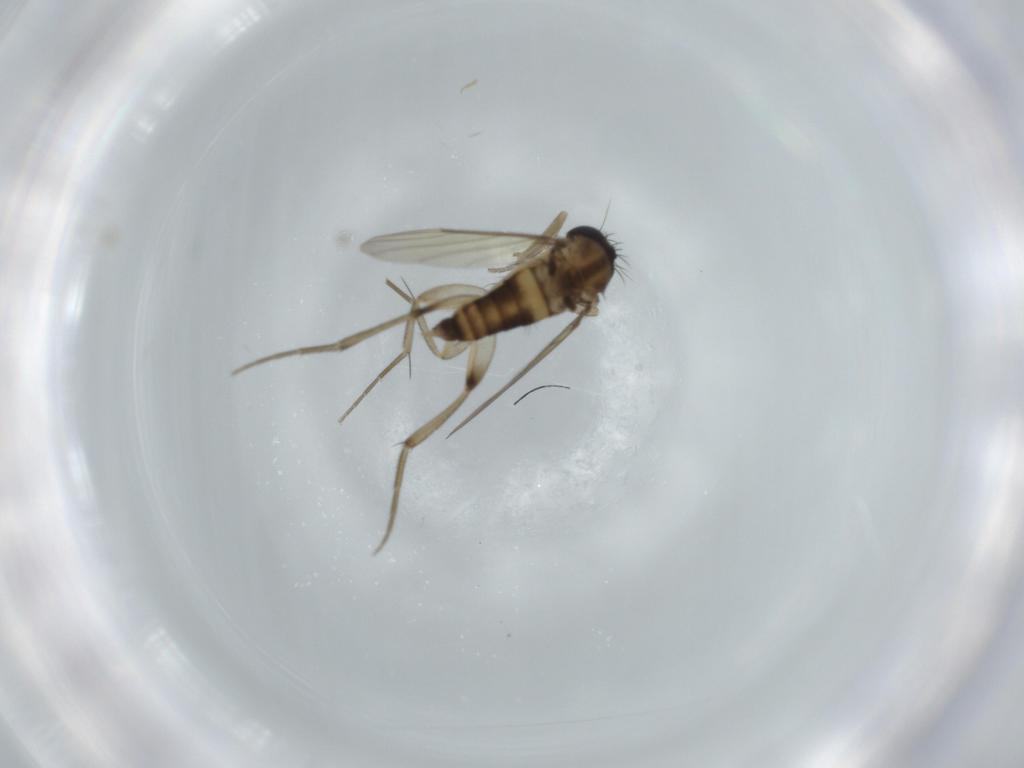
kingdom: Animalia
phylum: Arthropoda
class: Insecta
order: Diptera
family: Phoridae
